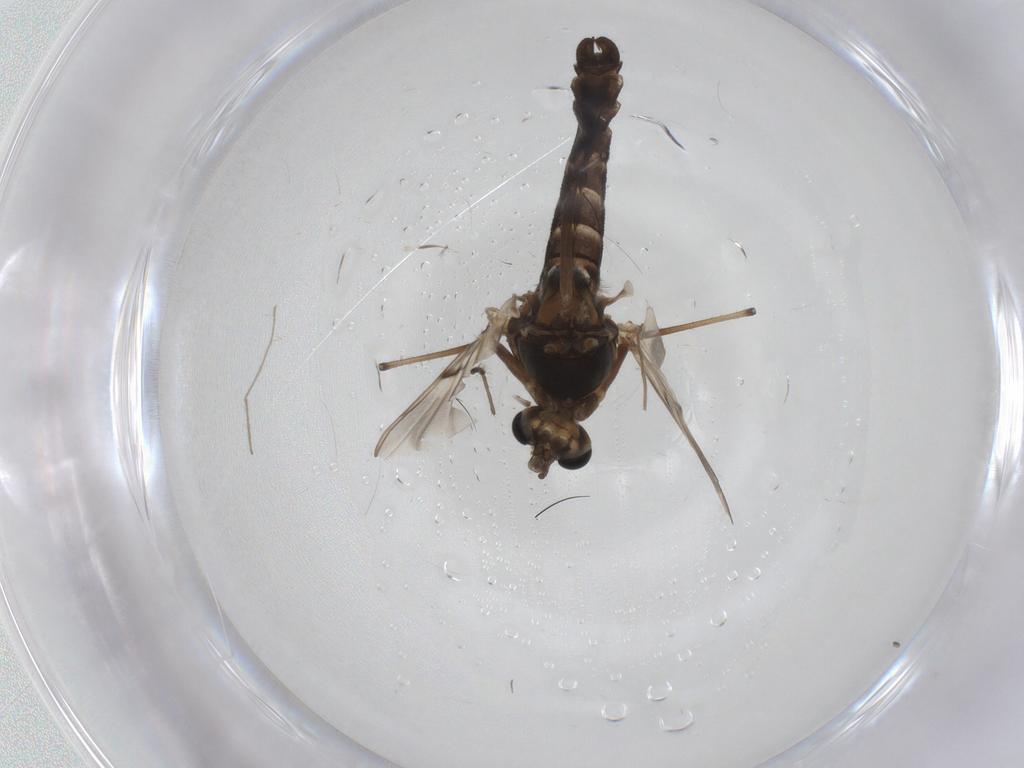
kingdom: Animalia
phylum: Arthropoda
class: Insecta
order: Diptera
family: Chironomidae
